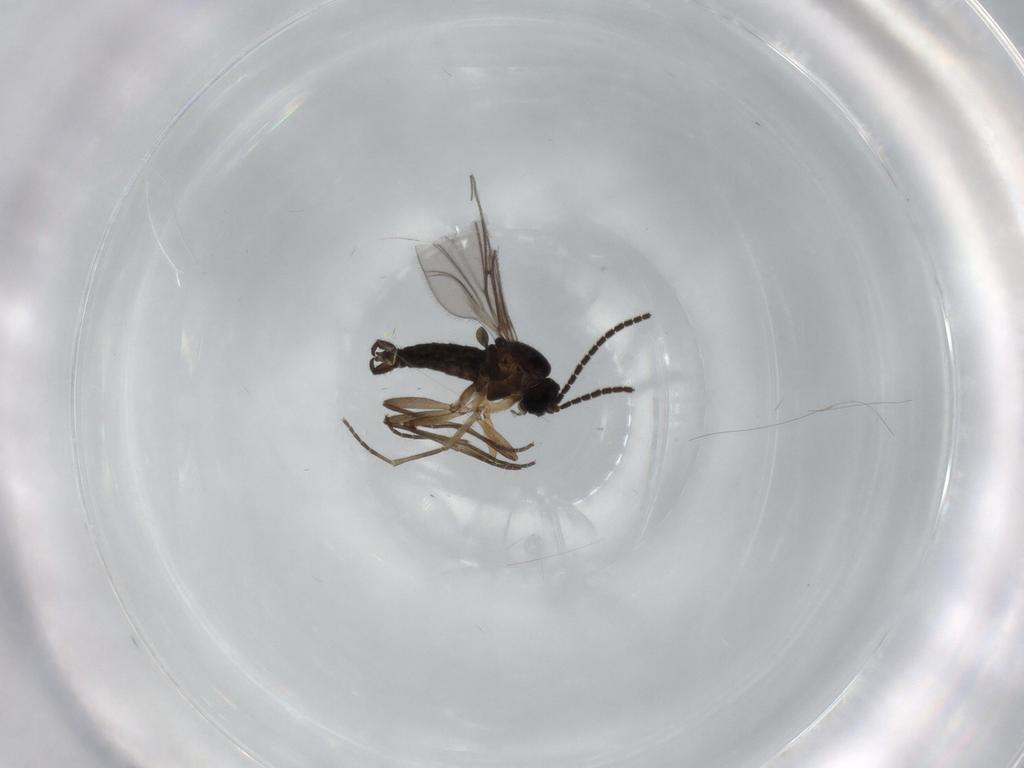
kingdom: Animalia
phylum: Arthropoda
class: Insecta
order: Diptera
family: Sciaridae
